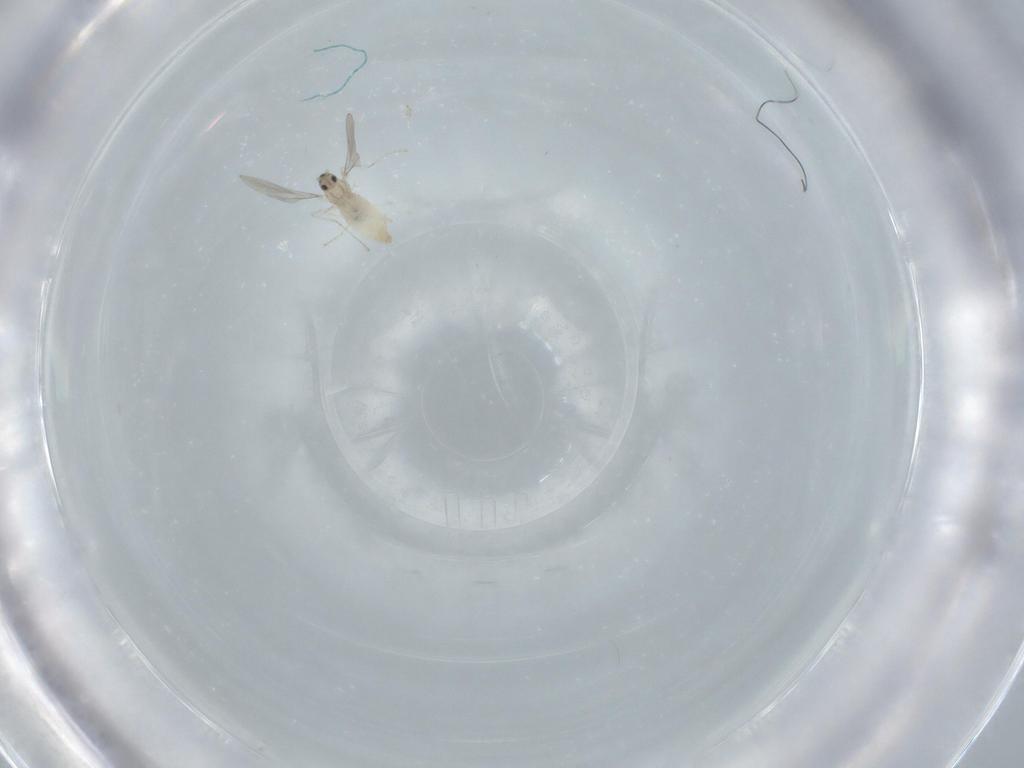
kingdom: Animalia
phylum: Arthropoda
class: Insecta
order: Diptera
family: Cecidomyiidae
